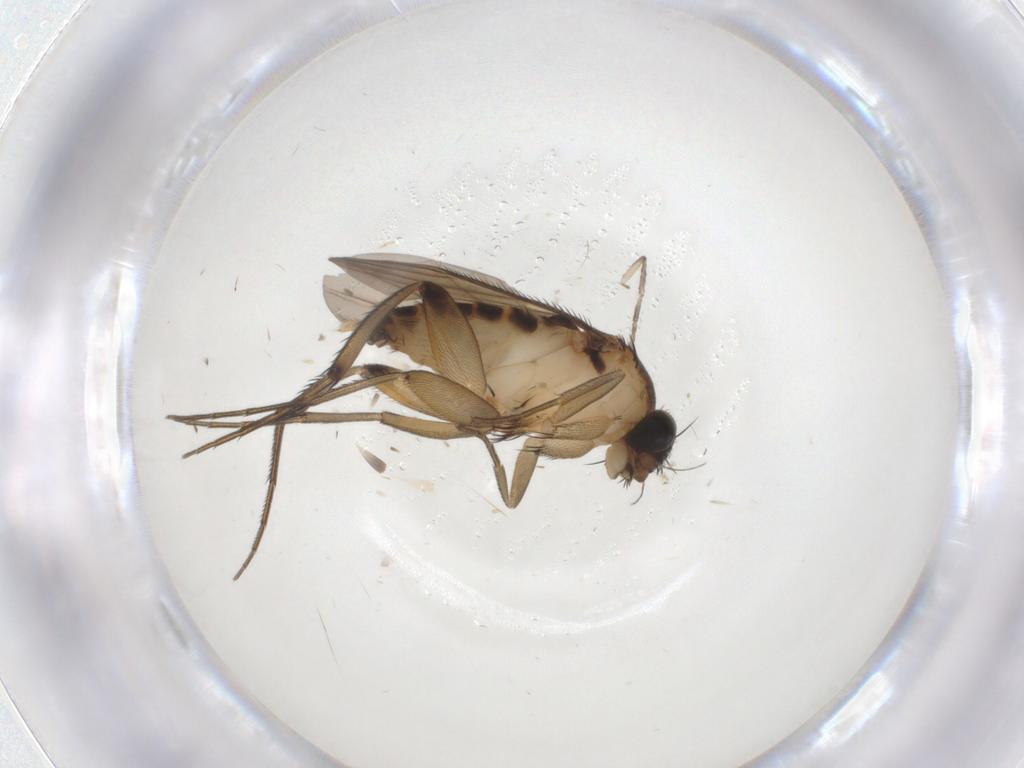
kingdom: Animalia
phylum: Arthropoda
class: Insecta
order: Diptera
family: Phoridae
